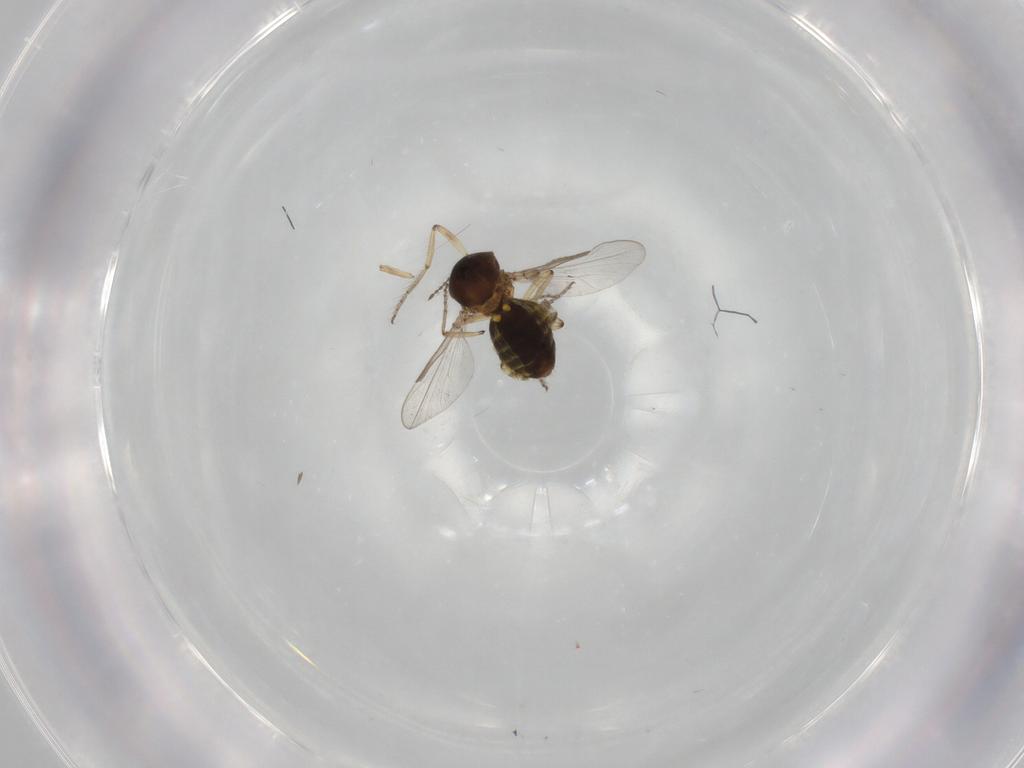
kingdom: Animalia
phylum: Arthropoda
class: Insecta
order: Diptera
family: Ceratopogonidae
